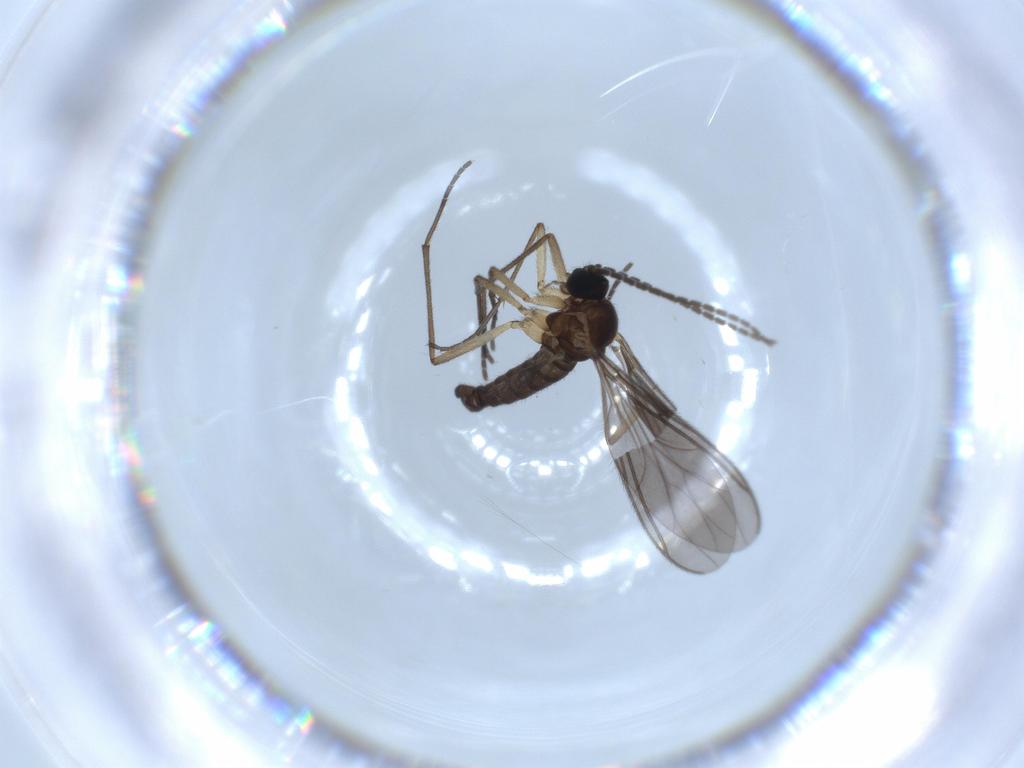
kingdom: Animalia
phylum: Arthropoda
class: Insecta
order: Diptera
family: Sciaridae
